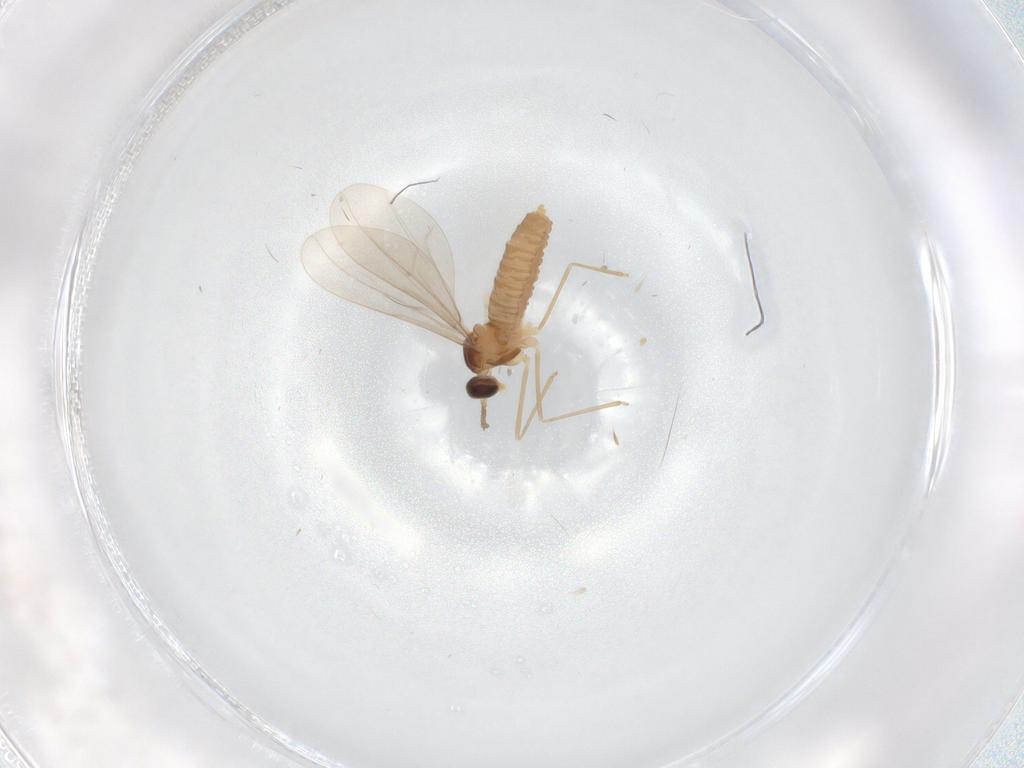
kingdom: Animalia
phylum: Arthropoda
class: Insecta
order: Diptera
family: Cecidomyiidae
